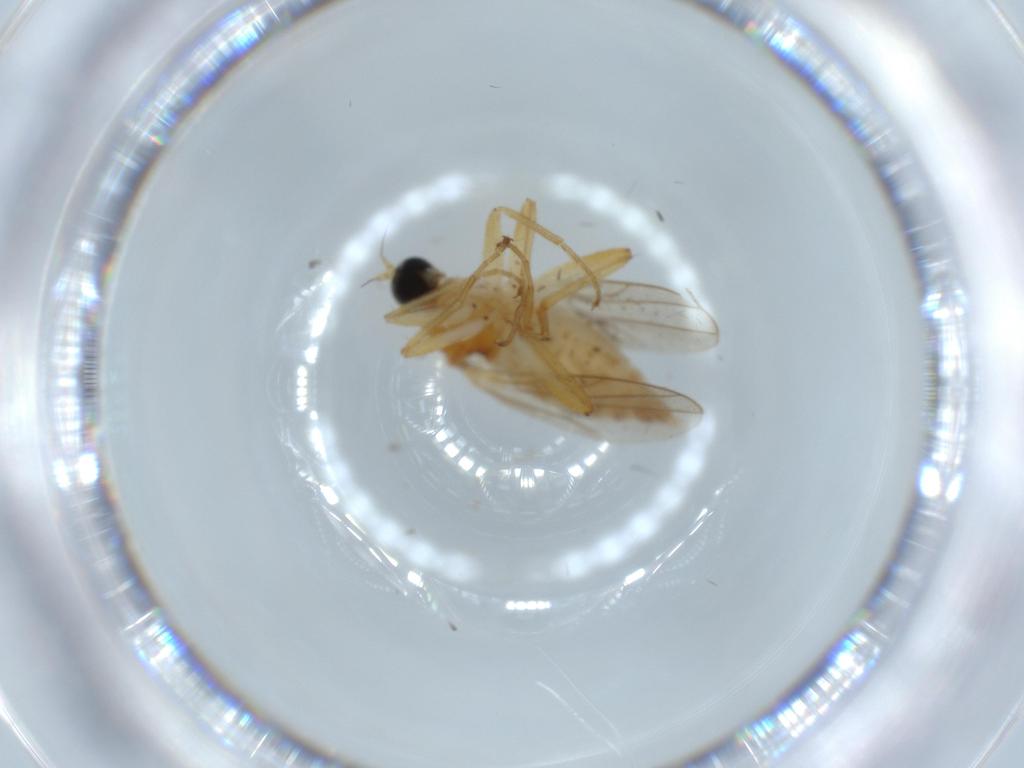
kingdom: Animalia
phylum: Arthropoda
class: Insecta
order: Diptera
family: Hybotidae
